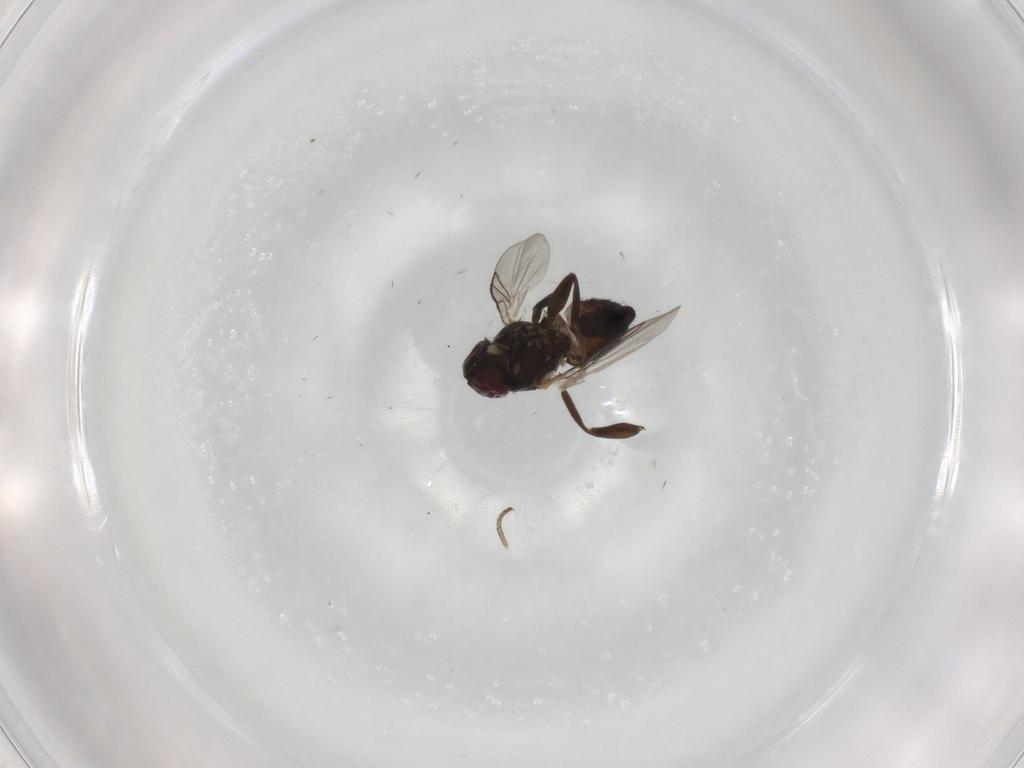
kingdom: Animalia
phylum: Arthropoda
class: Insecta
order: Diptera
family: Agromyzidae
